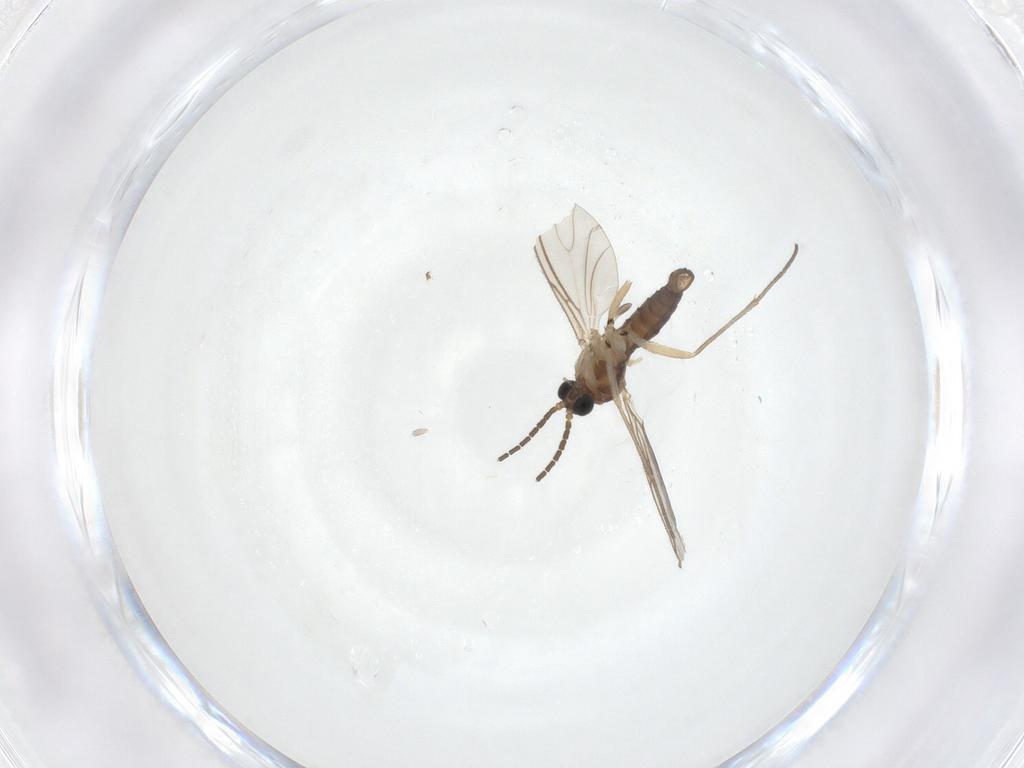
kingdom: Animalia
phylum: Arthropoda
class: Insecta
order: Diptera
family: Sciaridae
